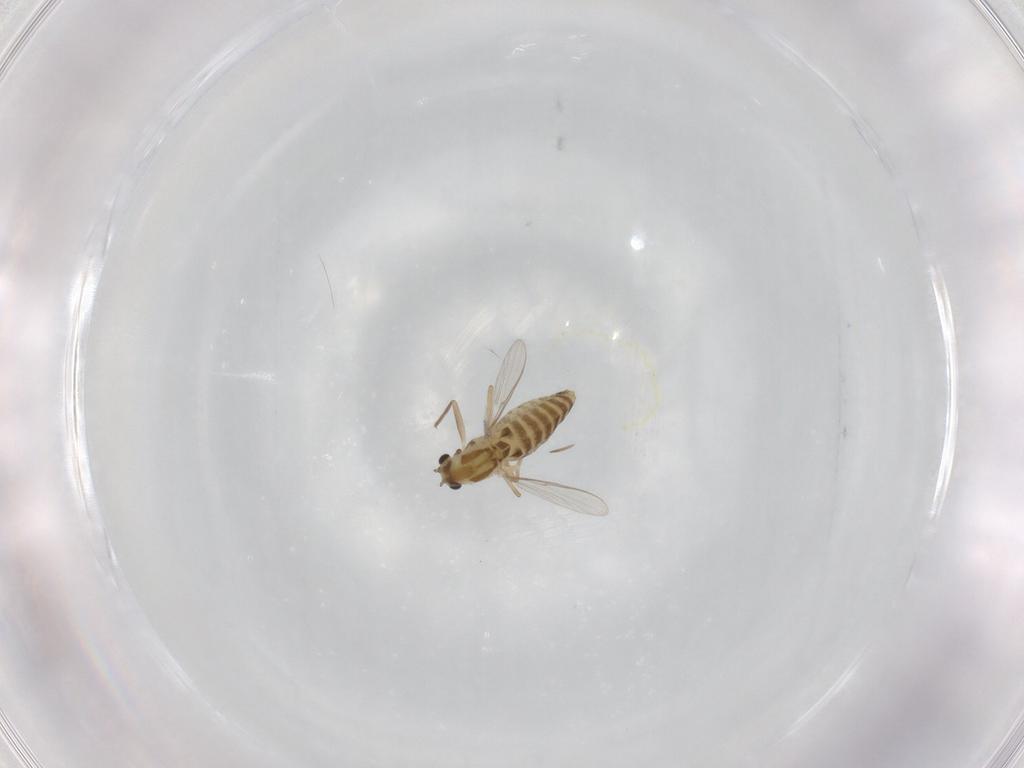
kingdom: Animalia
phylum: Arthropoda
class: Insecta
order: Diptera
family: Chironomidae
